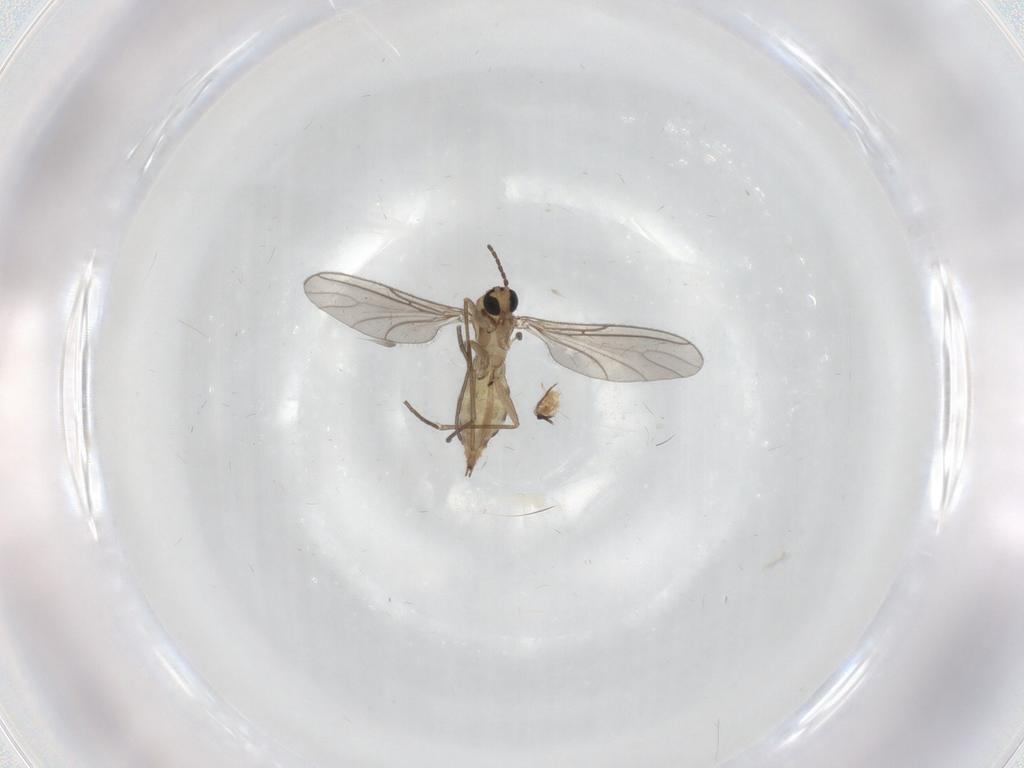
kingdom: Animalia
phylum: Arthropoda
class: Insecta
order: Diptera
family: Sciaridae
